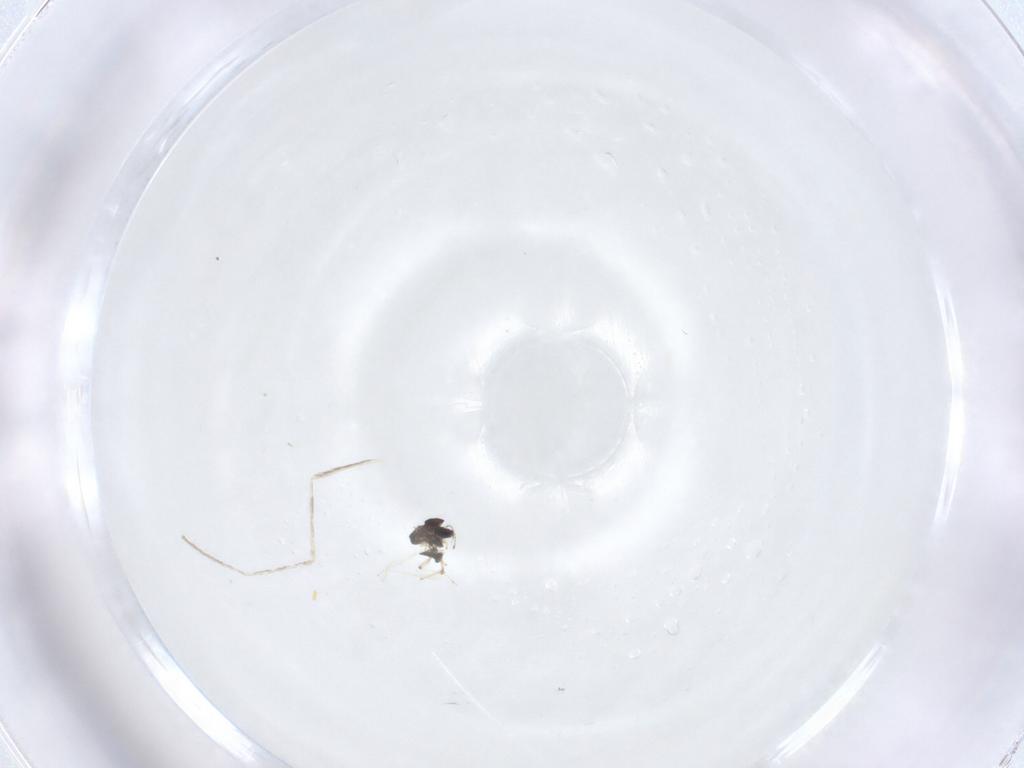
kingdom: Animalia
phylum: Arthropoda
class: Insecta
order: Diptera
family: Chironomidae
